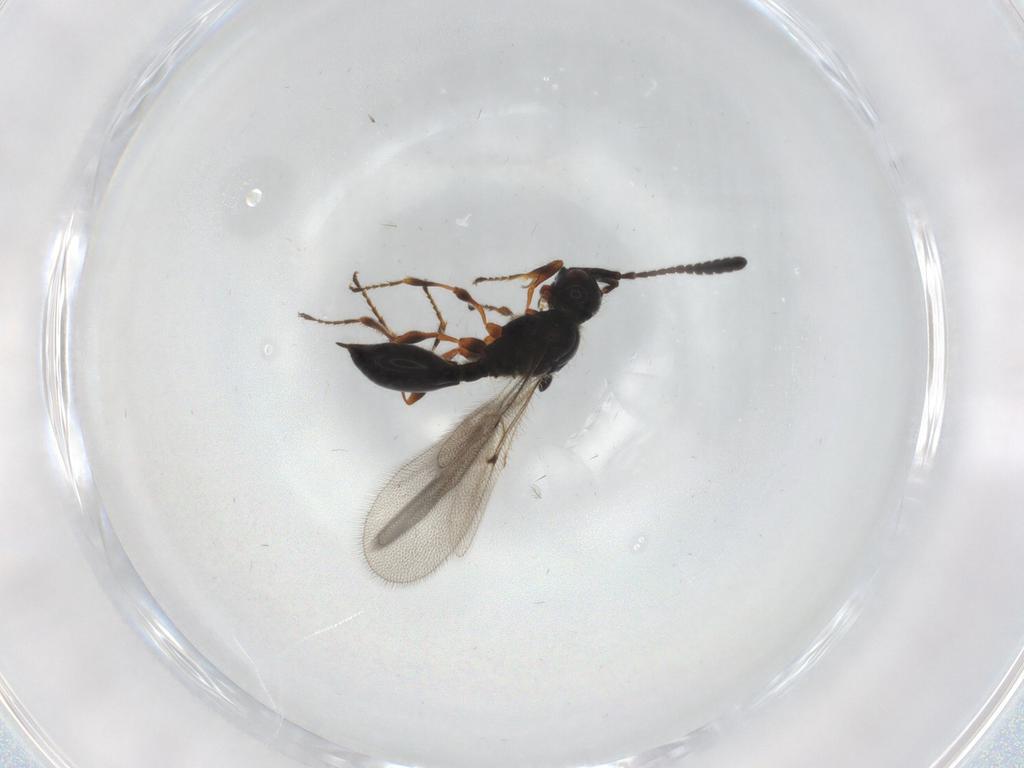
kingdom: Animalia
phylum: Arthropoda
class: Insecta
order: Hymenoptera
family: Diapriidae
